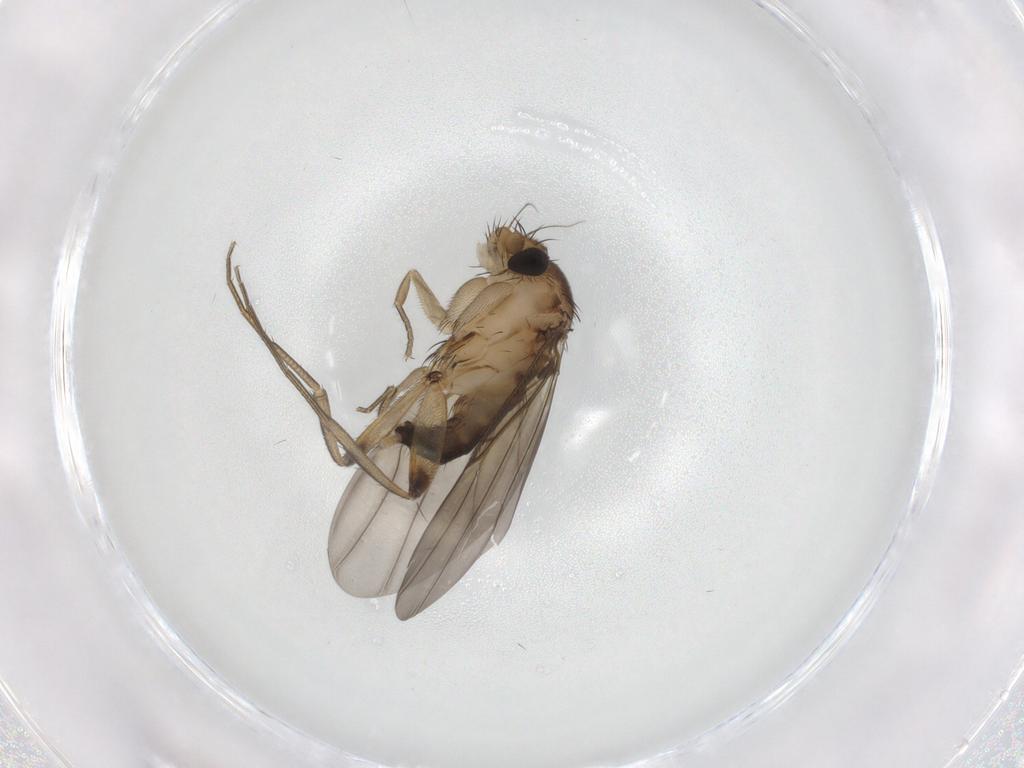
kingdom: Animalia
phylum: Arthropoda
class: Insecta
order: Diptera
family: Phoridae
